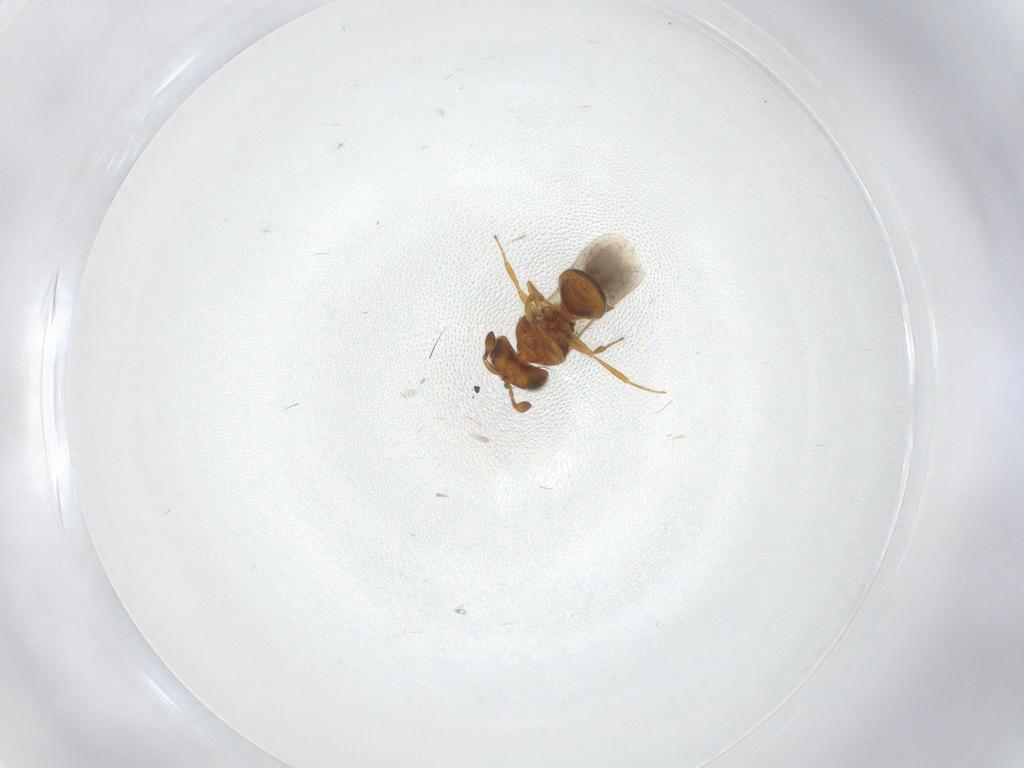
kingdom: Animalia
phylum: Arthropoda
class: Insecta
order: Hymenoptera
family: Scelionidae
